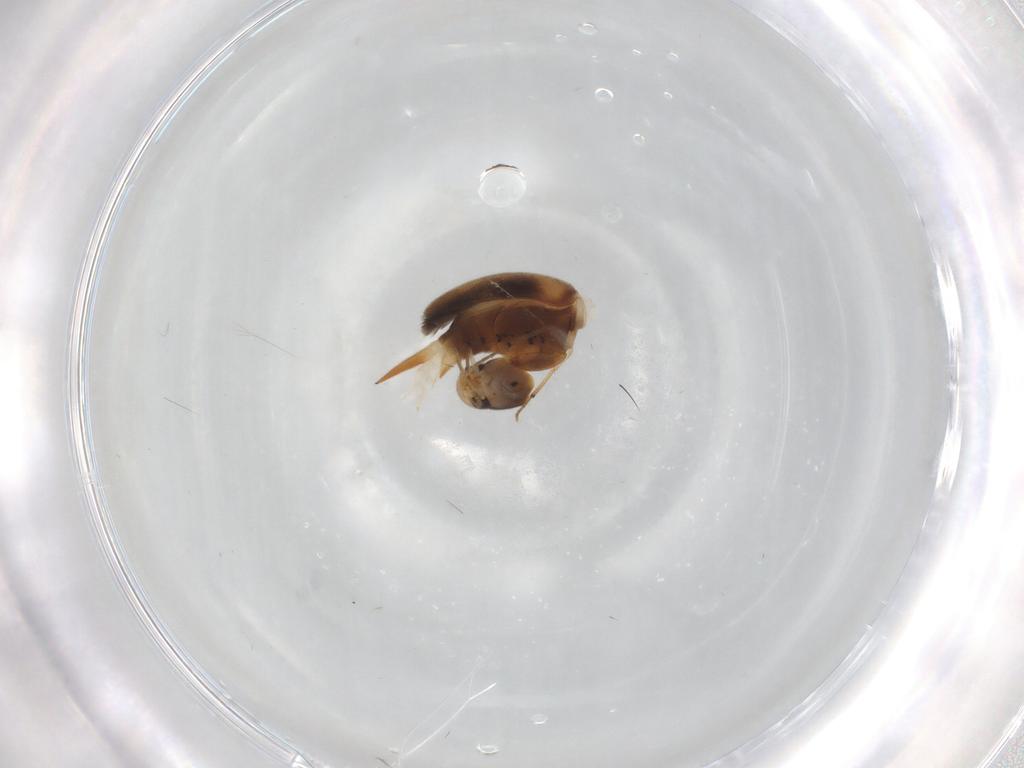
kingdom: Animalia
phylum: Arthropoda
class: Insecta
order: Coleoptera
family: Mordellidae
